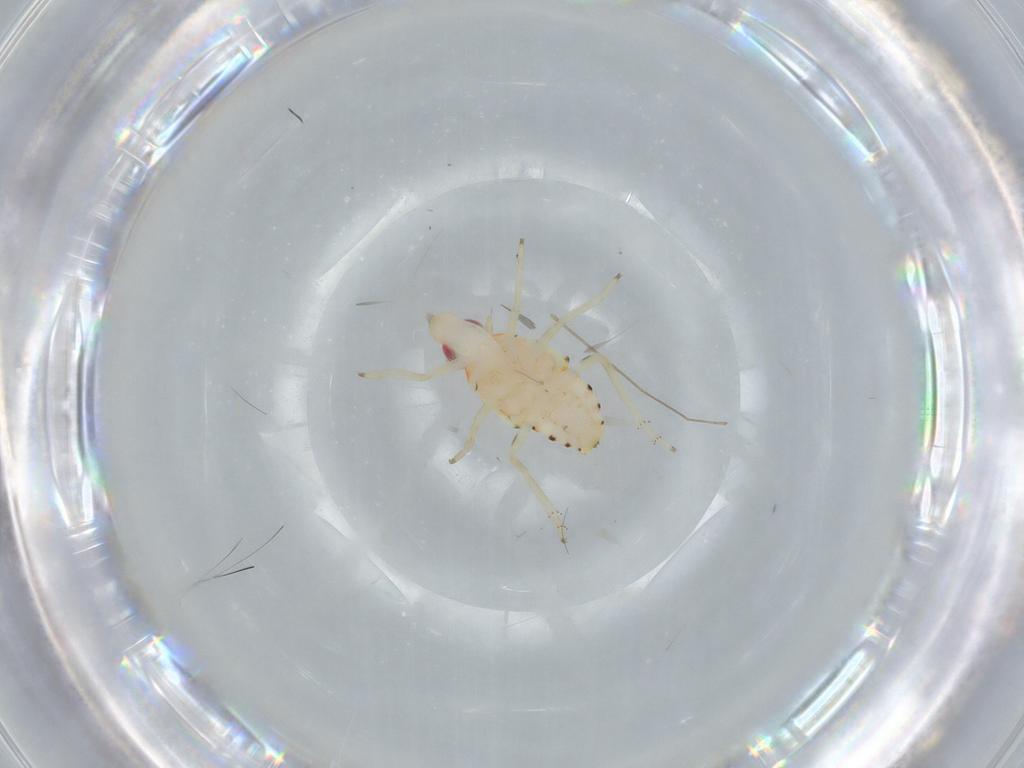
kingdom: Animalia
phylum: Arthropoda
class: Insecta
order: Hemiptera
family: Tropiduchidae
